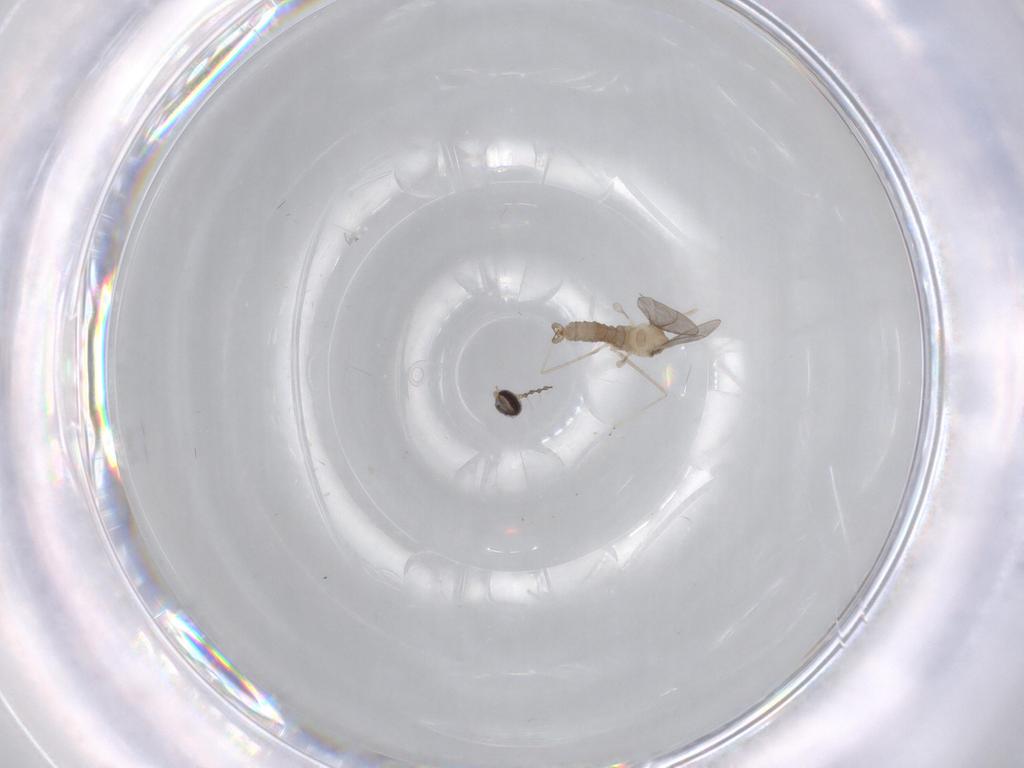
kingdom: Animalia
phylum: Arthropoda
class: Insecta
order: Diptera
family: Cecidomyiidae
